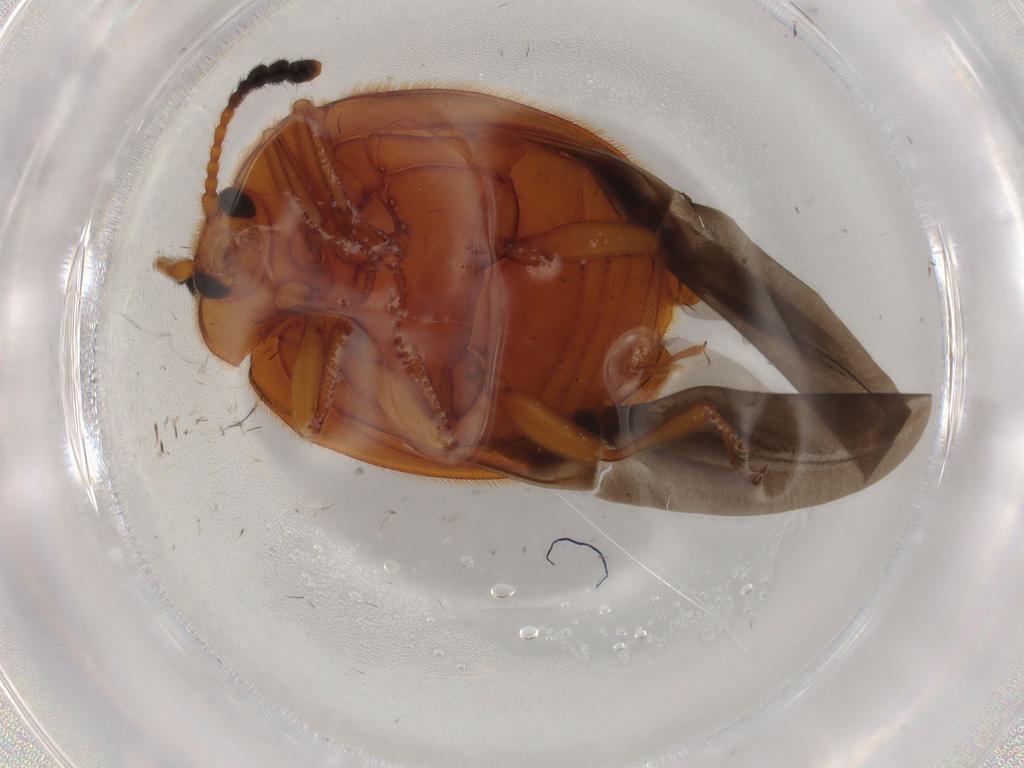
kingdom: Animalia
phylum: Arthropoda
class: Insecta
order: Coleoptera
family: Endomychidae
